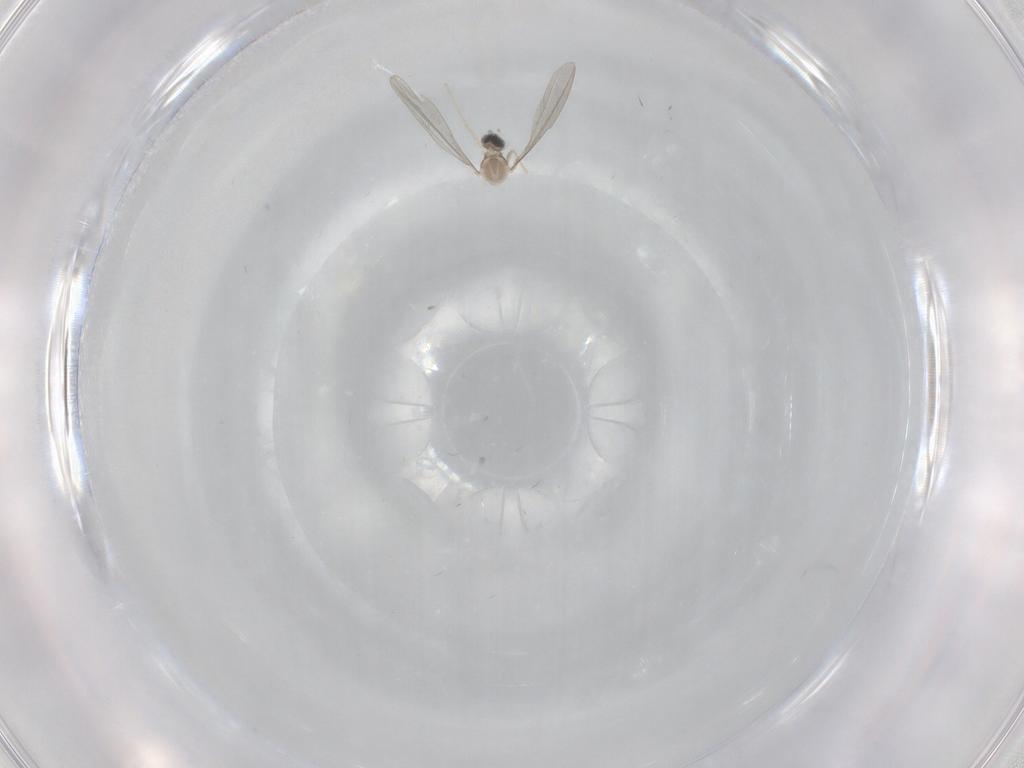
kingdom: Animalia
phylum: Arthropoda
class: Insecta
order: Diptera
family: Cecidomyiidae
